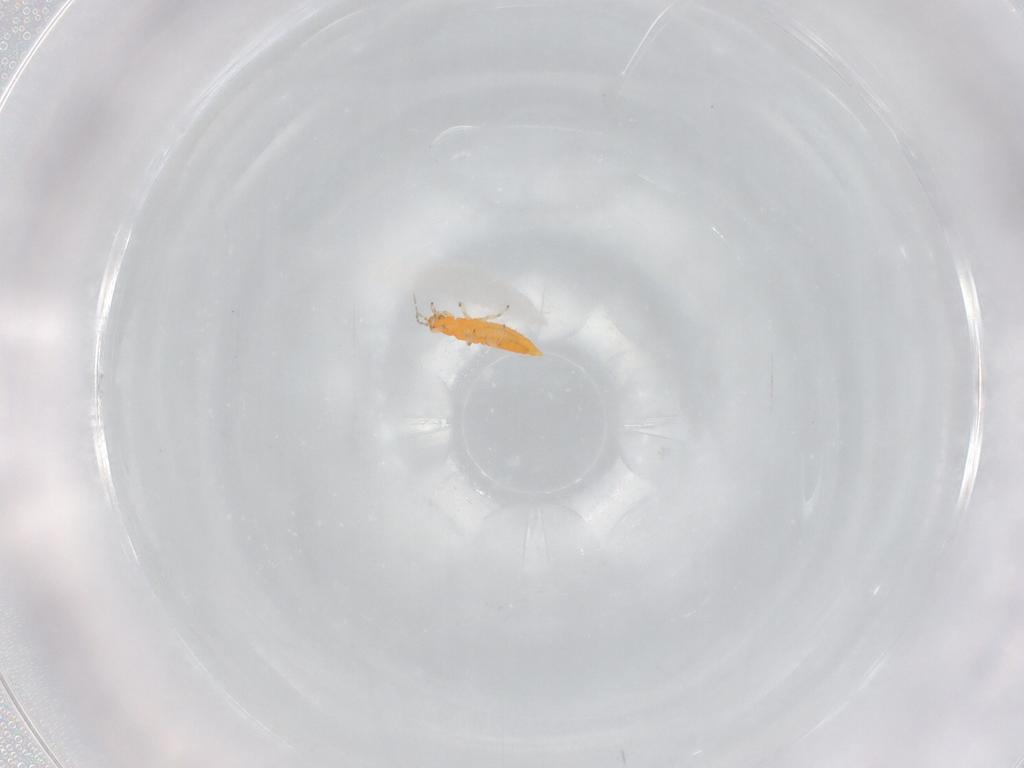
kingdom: Animalia
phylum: Arthropoda
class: Insecta
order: Thysanoptera
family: Aeolothripidae
